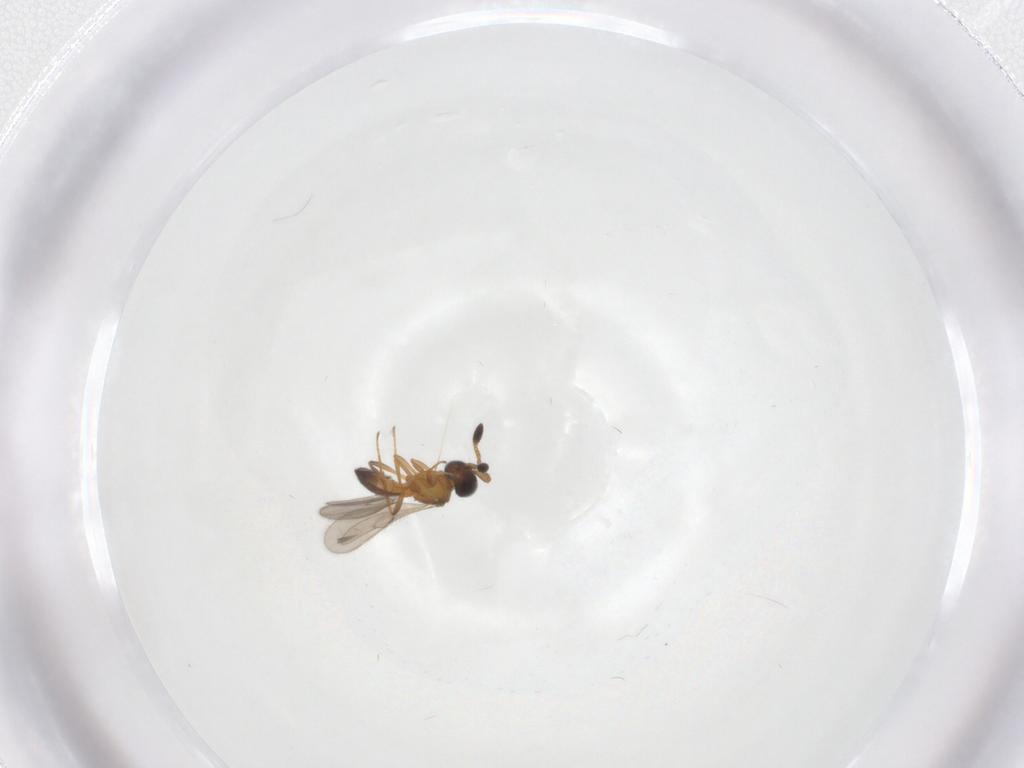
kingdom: Animalia
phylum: Arthropoda
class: Insecta
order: Hymenoptera
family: Scelionidae
